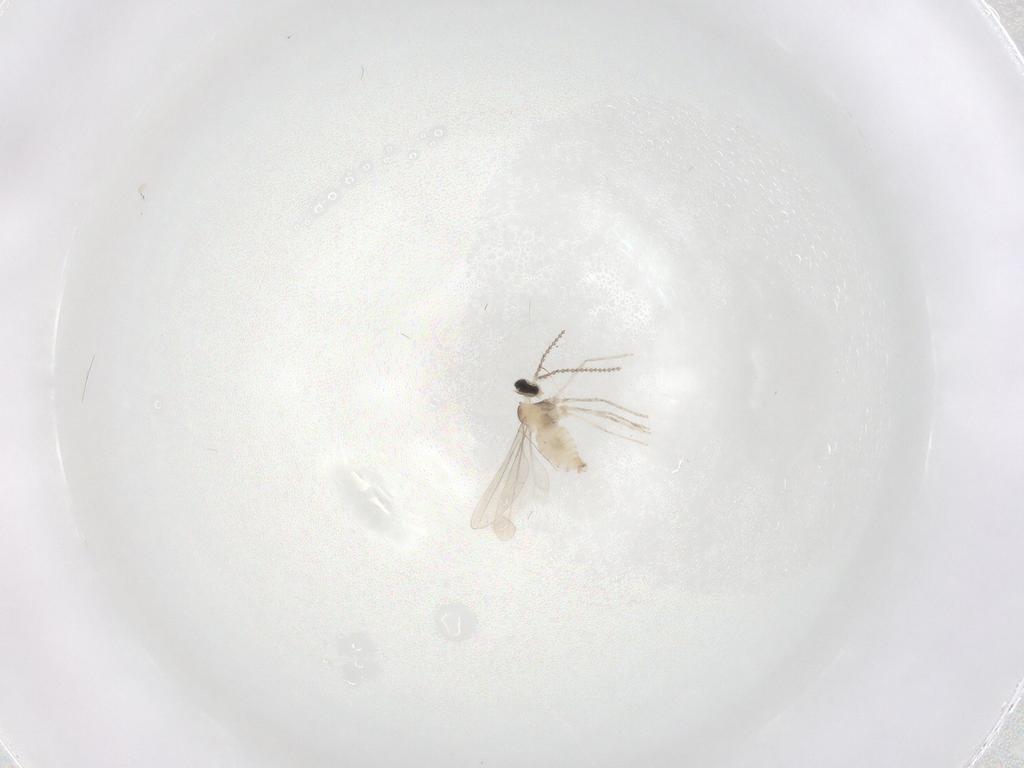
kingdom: Animalia
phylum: Arthropoda
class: Insecta
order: Diptera
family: Cecidomyiidae
